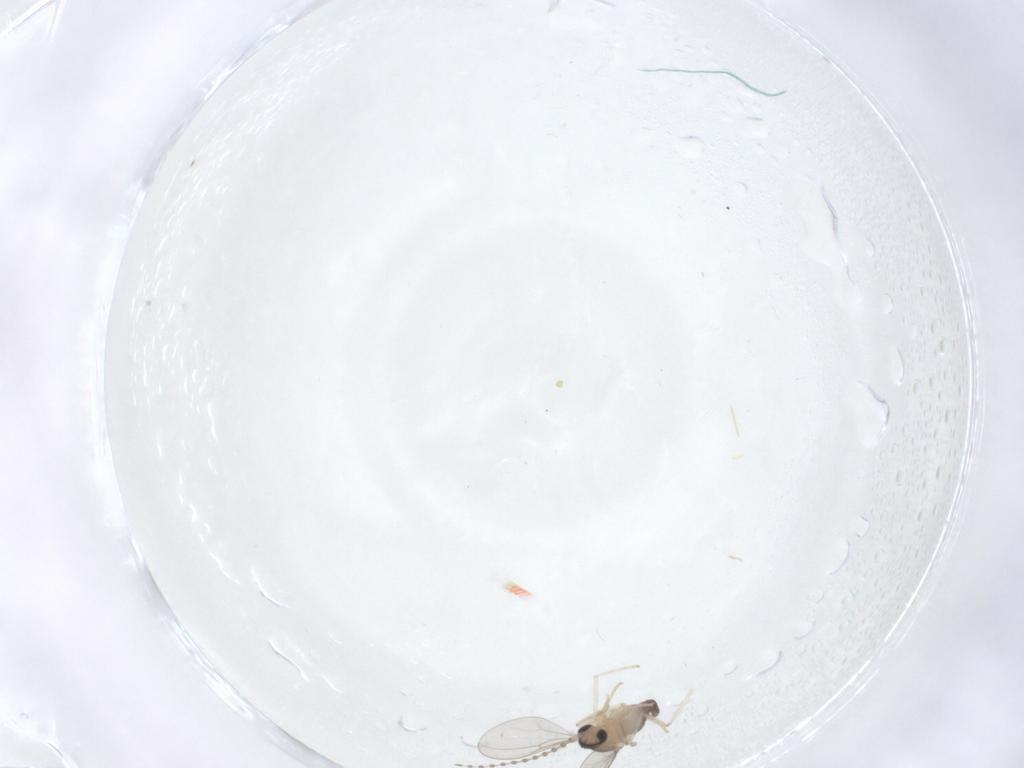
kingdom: Animalia
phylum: Arthropoda
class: Insecta
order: Diptera
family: Cecidomyiidae
